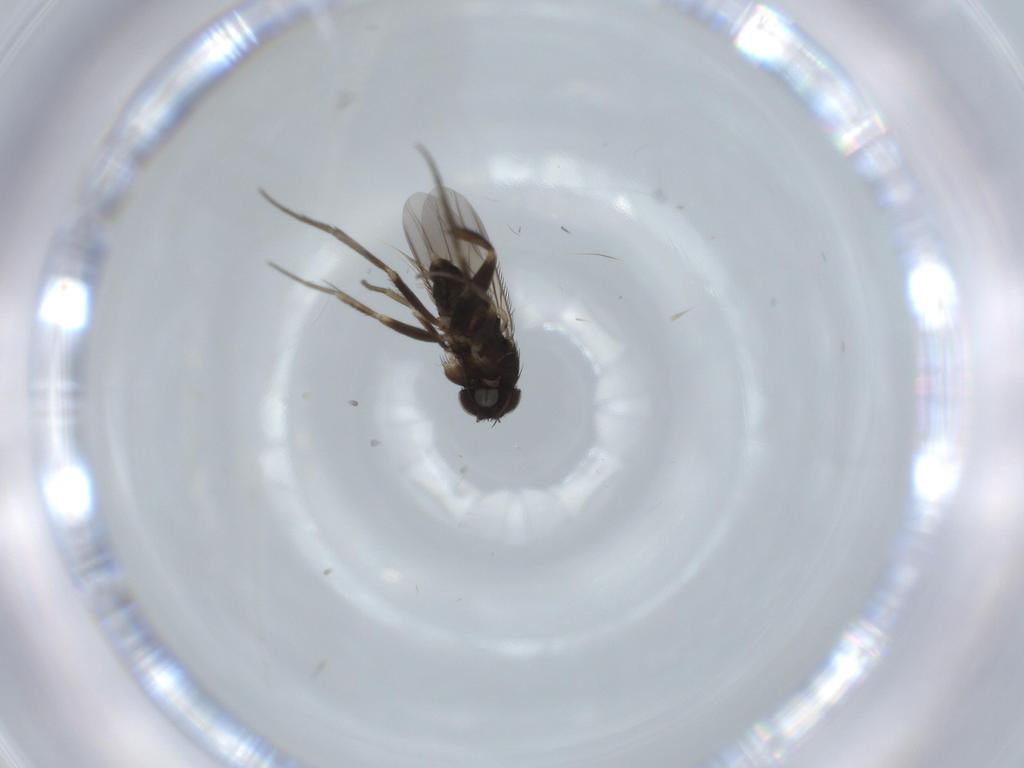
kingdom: Animalia
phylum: Arthropoda
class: Insecta
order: Diptera
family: Phoridae
